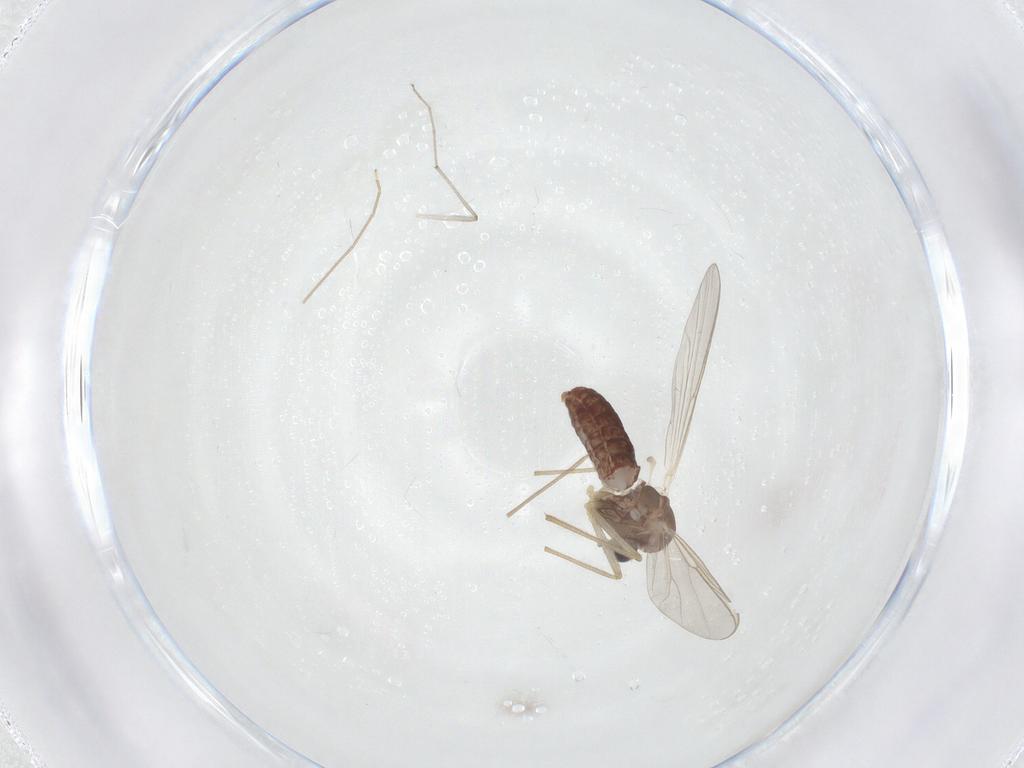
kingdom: Animalia
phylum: Arthropoda
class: Insecta
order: Diptera
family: Chironomidae
